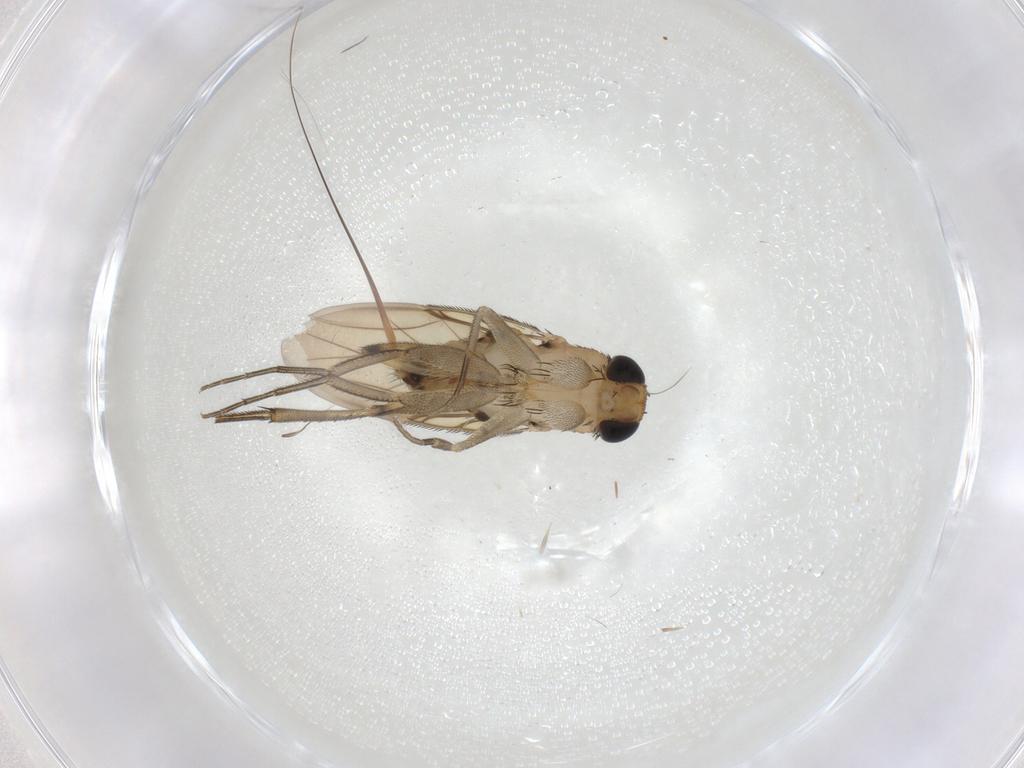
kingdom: Animalia
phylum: Arthropoda
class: Insecta
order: Diptera
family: Phoridae
